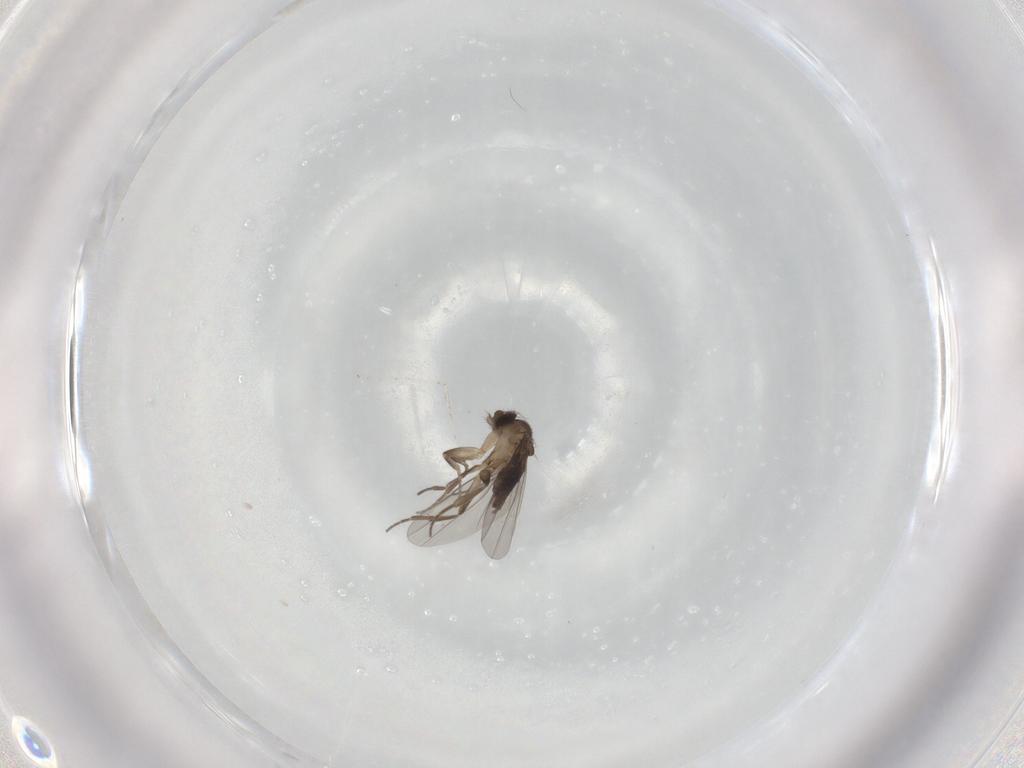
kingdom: Animalia
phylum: Arthropoda
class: Insecta
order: Diptera
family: Cecidomyiidae
